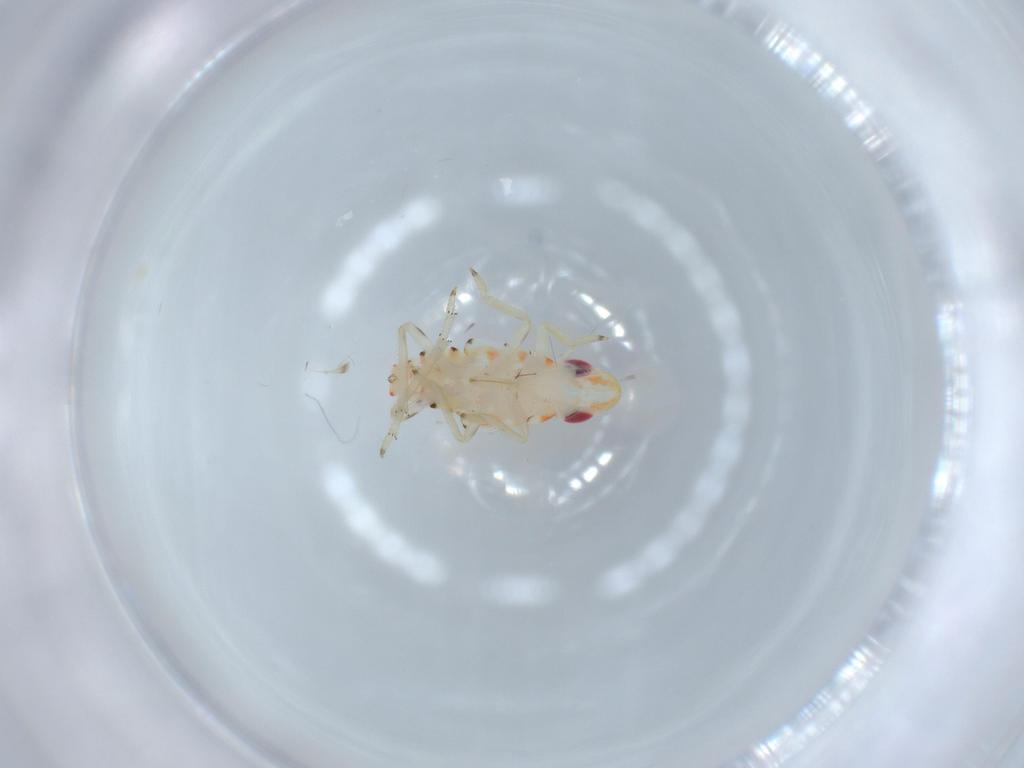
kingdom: Animalia
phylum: Arthropoda
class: Insecta
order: Hemiptera
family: Tropiduchidae
